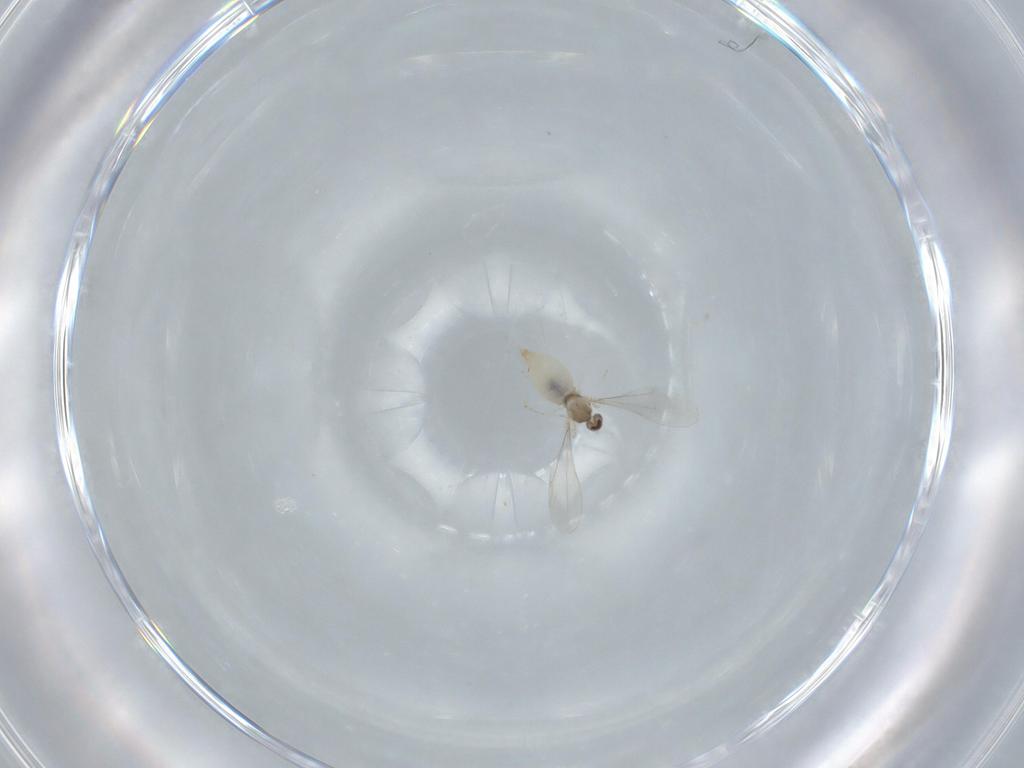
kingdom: Animalia
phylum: Arthropoda
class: Insecta
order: Diptera
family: Cecidomyiidae
